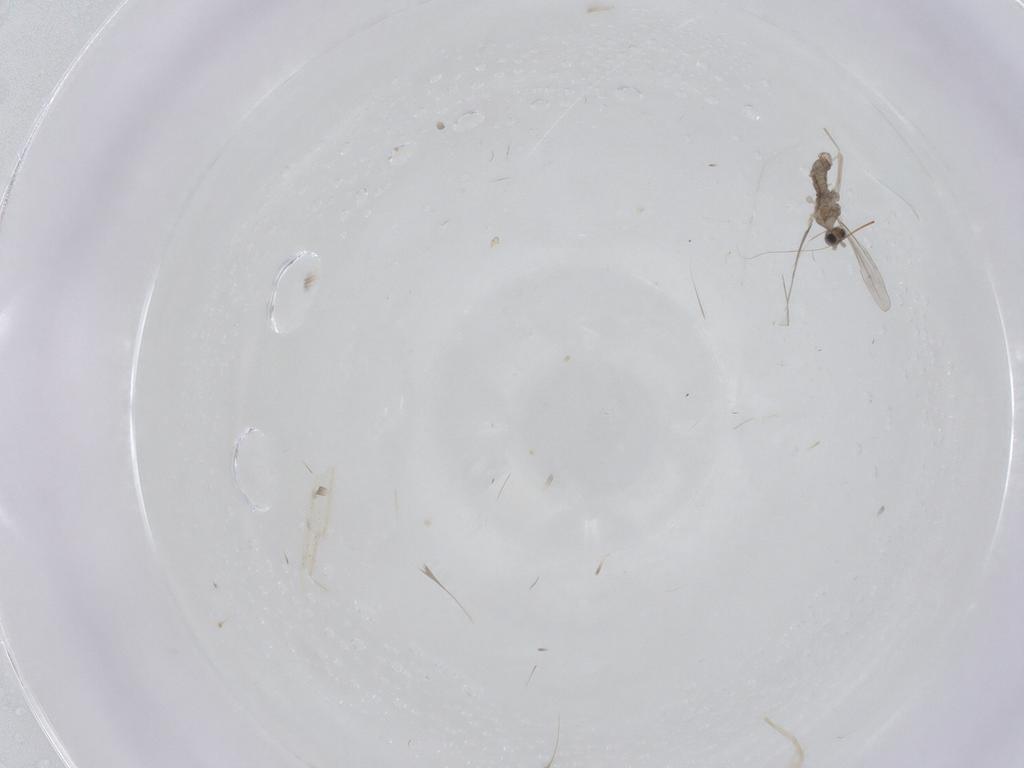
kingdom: Animalia
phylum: Arthropoda
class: Insecta
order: Diptera
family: Cecidomyiidae
